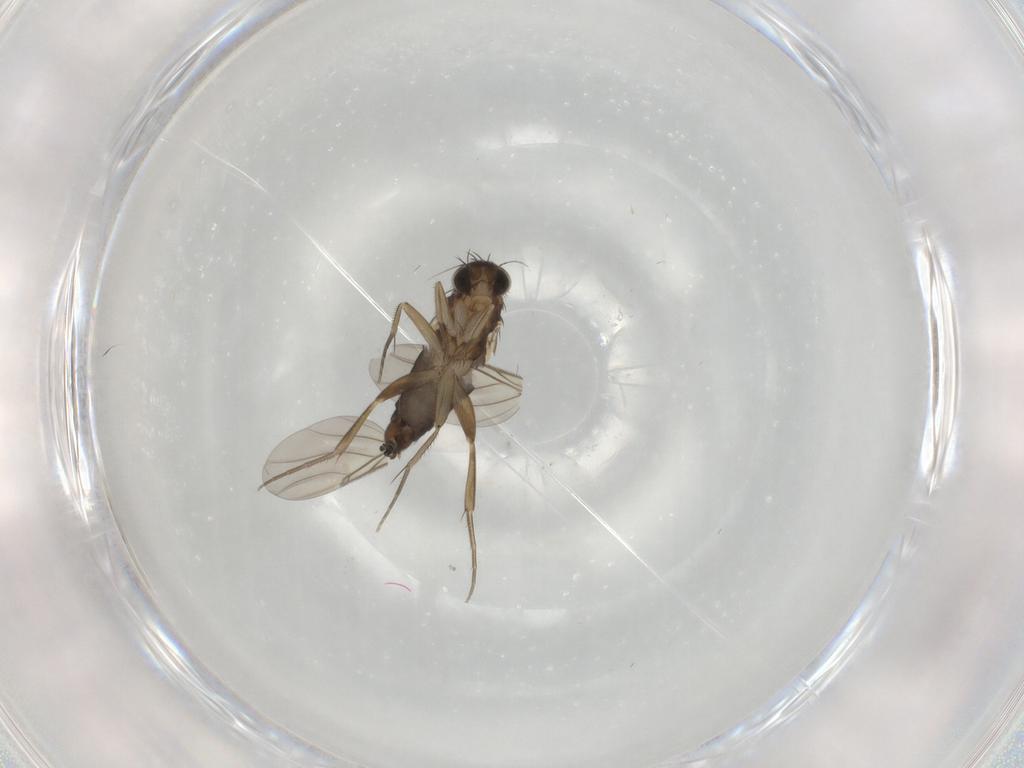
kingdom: Animalia
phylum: Arthropoda
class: Insecta
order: Diptera
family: Phoridae
